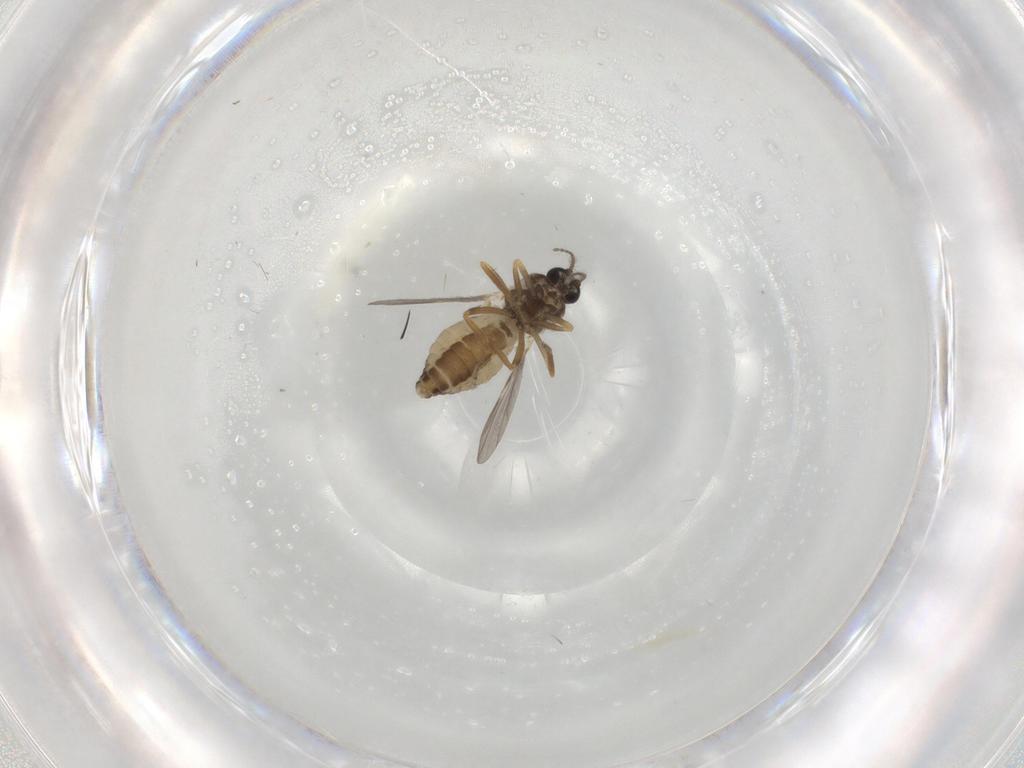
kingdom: Animalia
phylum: Arthropoda
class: Insecta
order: Diptera
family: Ceratopogonidae
